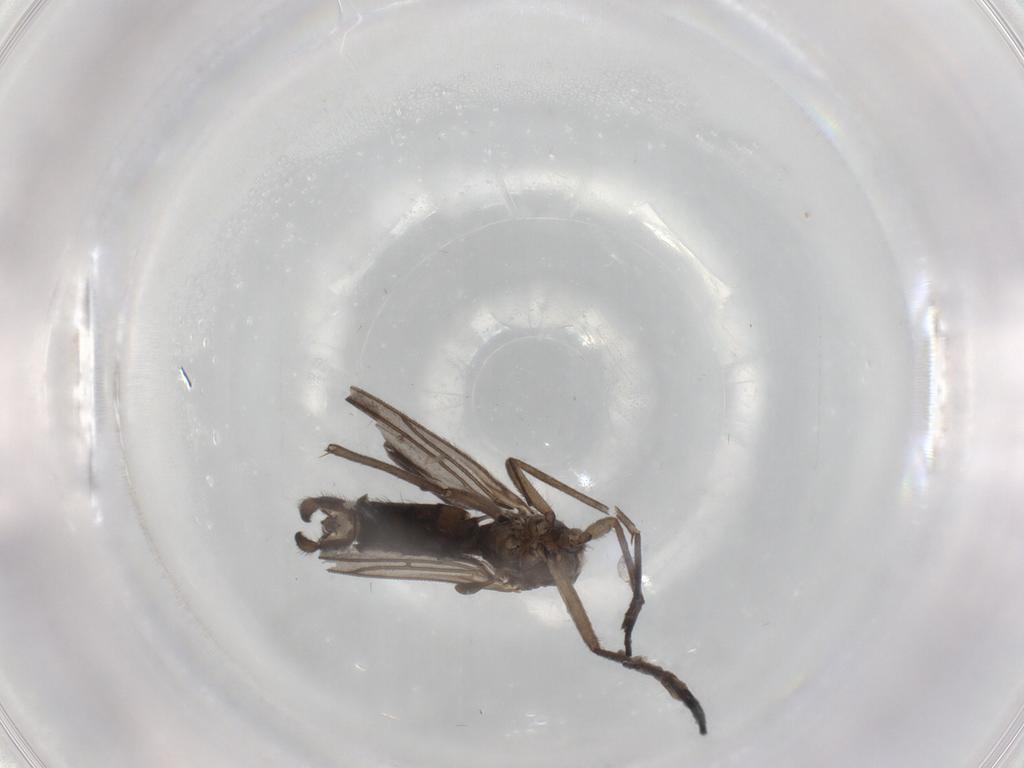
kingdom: Animalia
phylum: Arthropoda
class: Insecta
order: Diptera
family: Sciaridae
